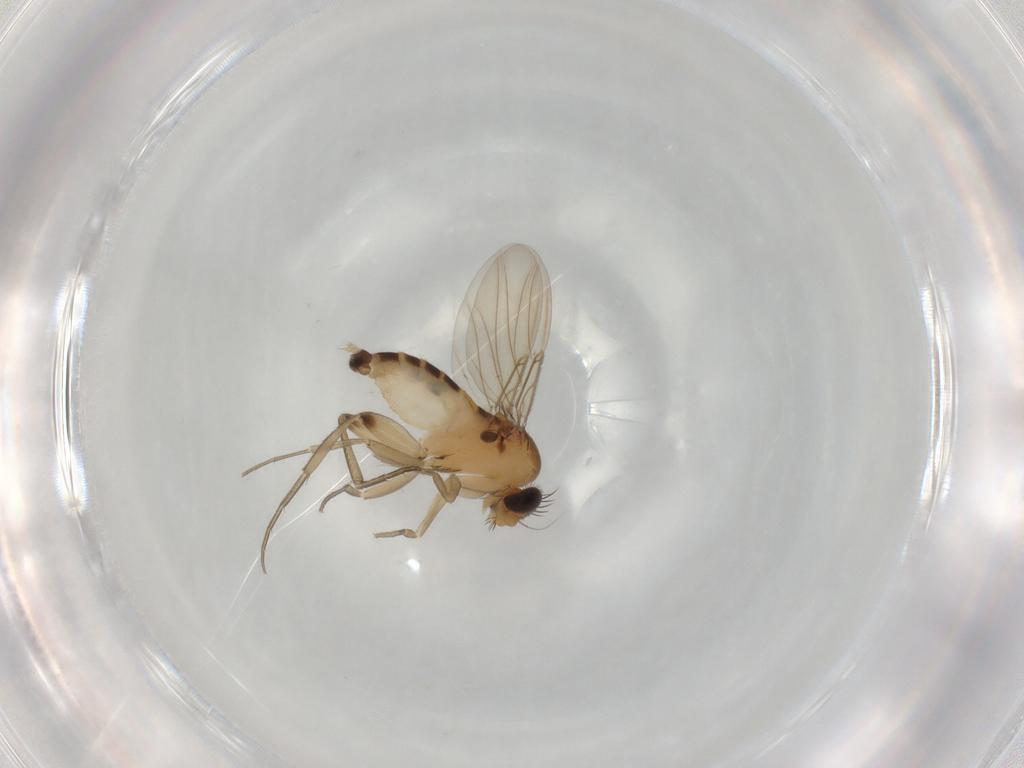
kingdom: Animalia
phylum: Arthropoda
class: Insecta
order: Diptera
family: Cecidomyiidae
